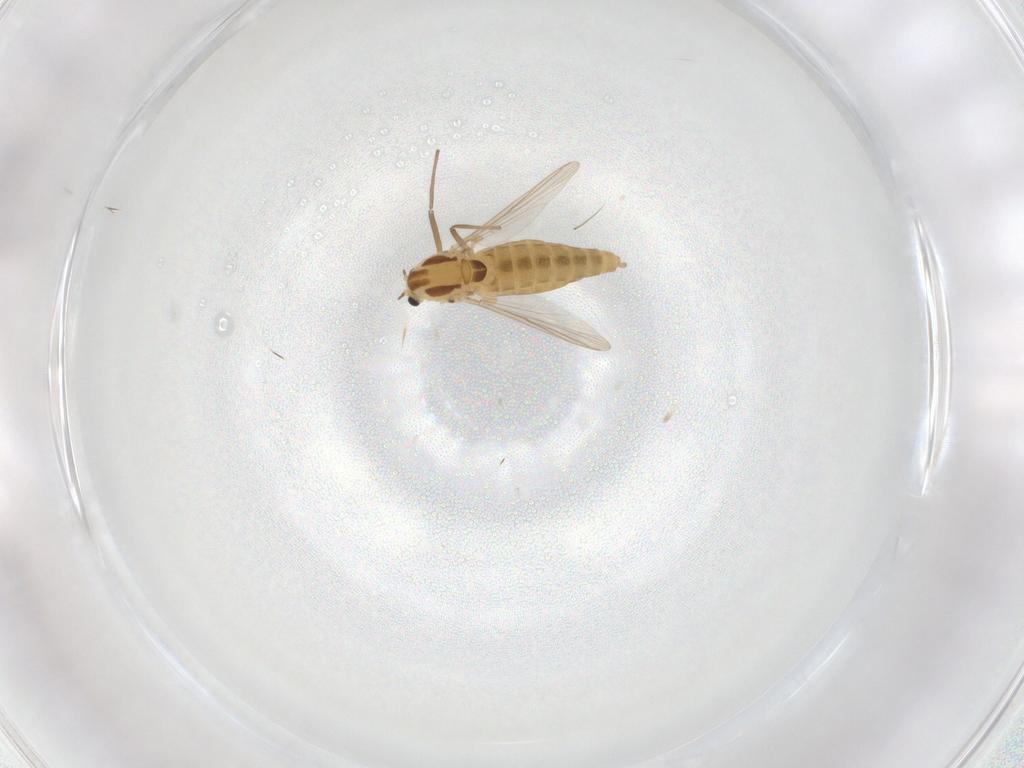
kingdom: Animalia
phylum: Arthropoda
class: Insecta
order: Diptera
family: Chironomidae
